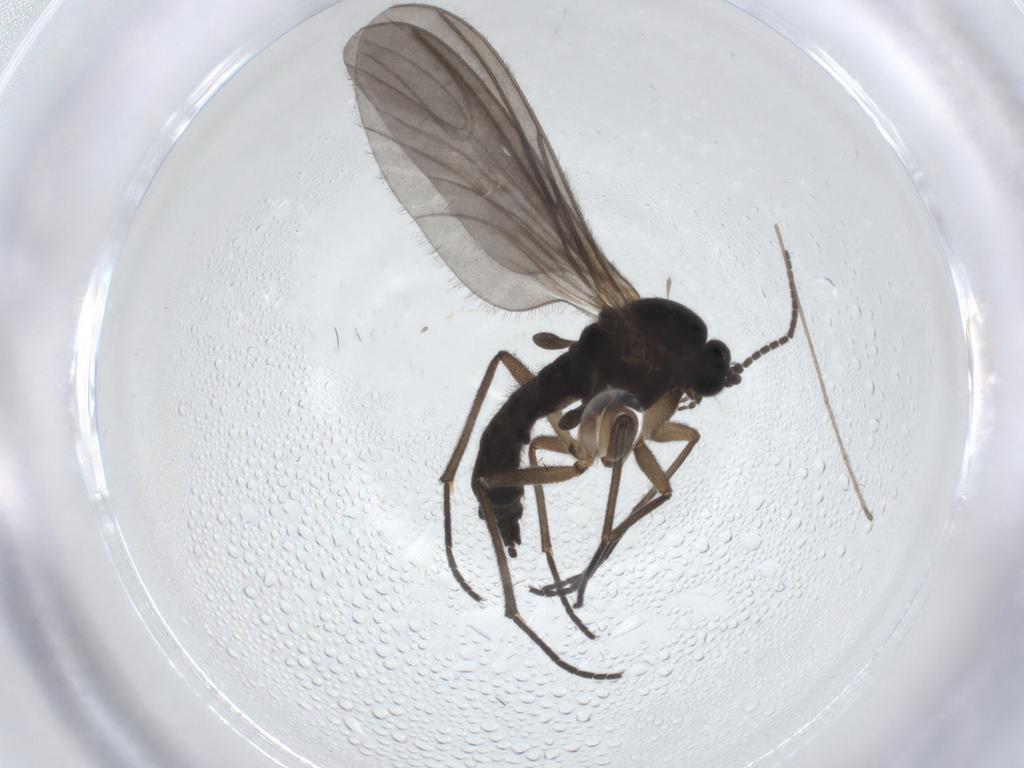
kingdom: Animalia
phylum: Arthropoda
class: Insecta
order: Diptera
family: Sciaridae
